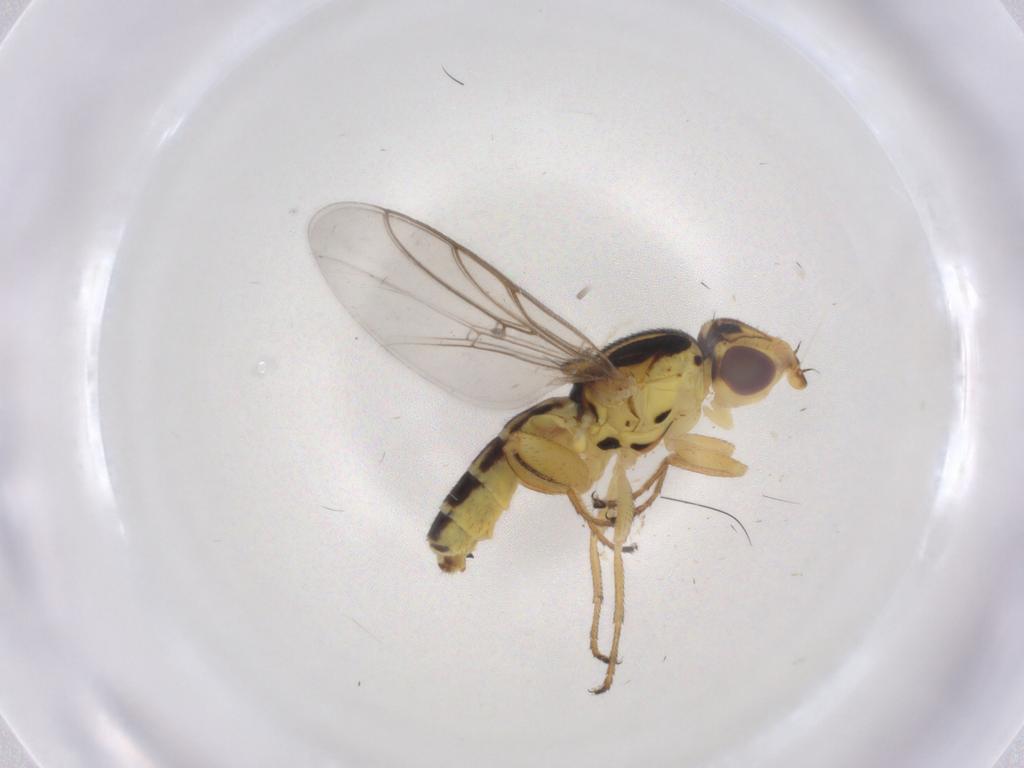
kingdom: Animalia
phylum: Arthropoda
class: Insecta
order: Diptera
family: Chloropidae
